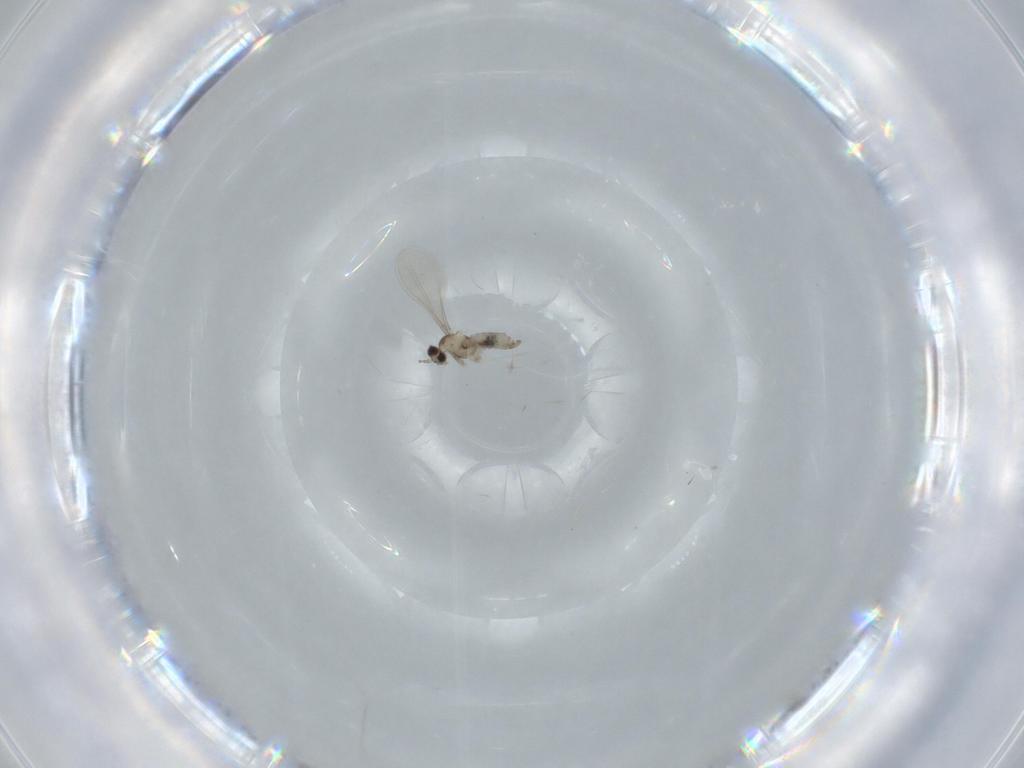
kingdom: Animalia
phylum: Arthropoda
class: Insecta
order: Diptera
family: Cecidomyiidae
